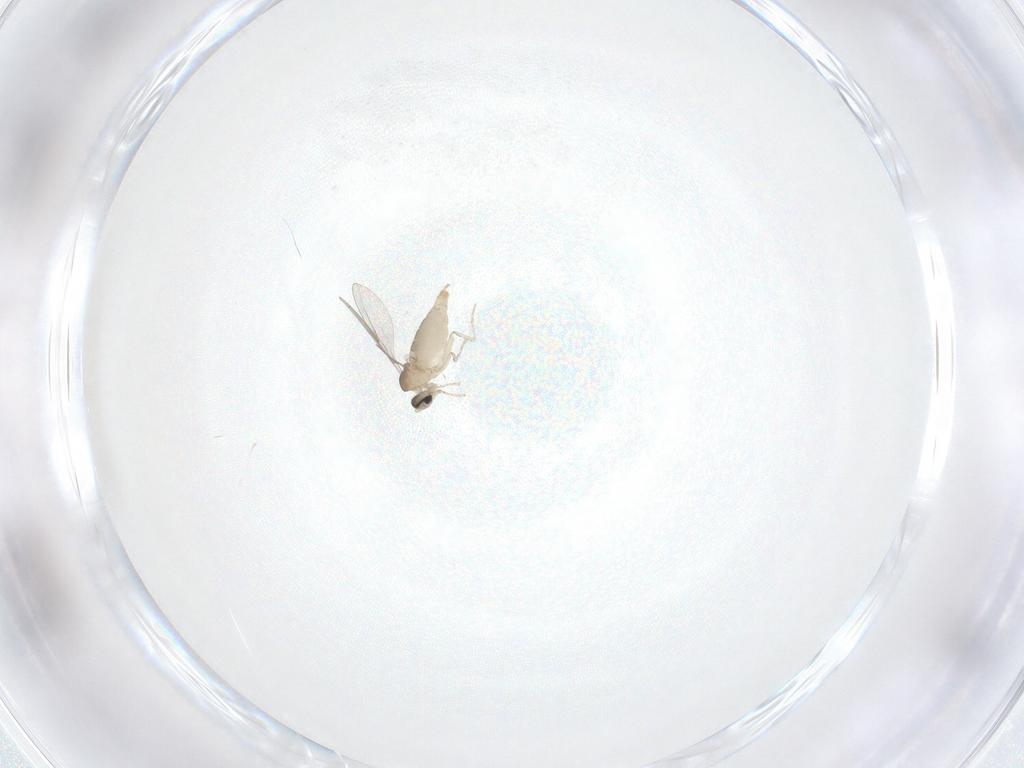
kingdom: Animalia
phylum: Arthropoda
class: Insecta
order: Diptera
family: Cecidomyiidae
